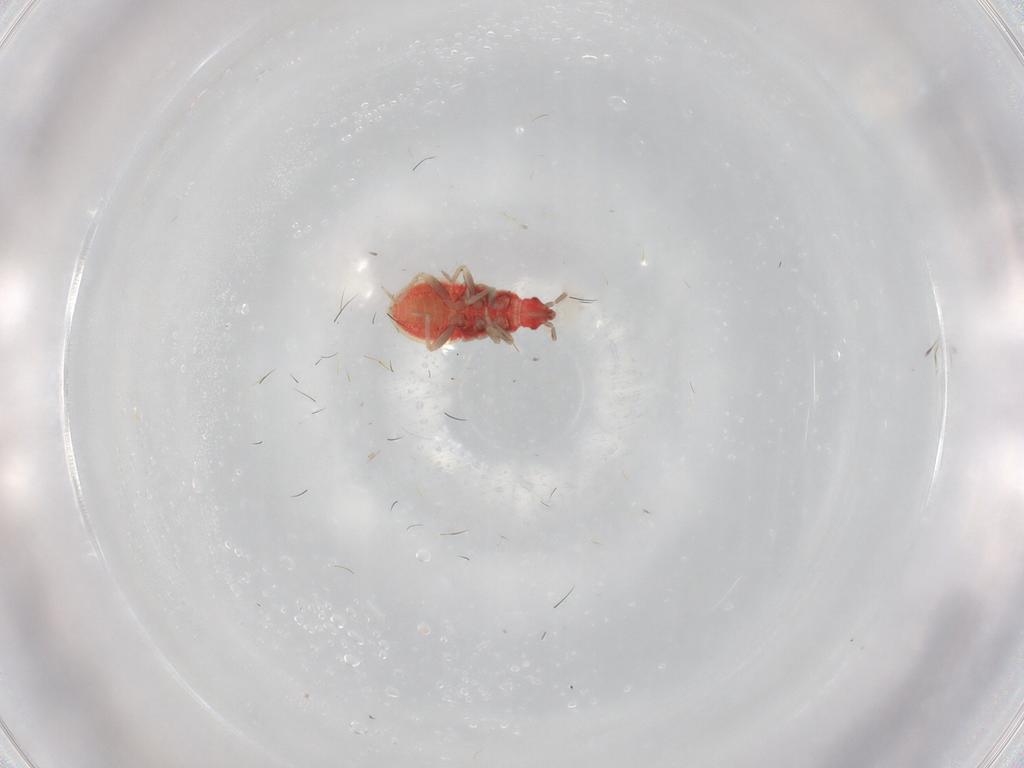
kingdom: Animalia
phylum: Arthropoda
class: Insecta
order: Hemiptera
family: Anthocoridae
